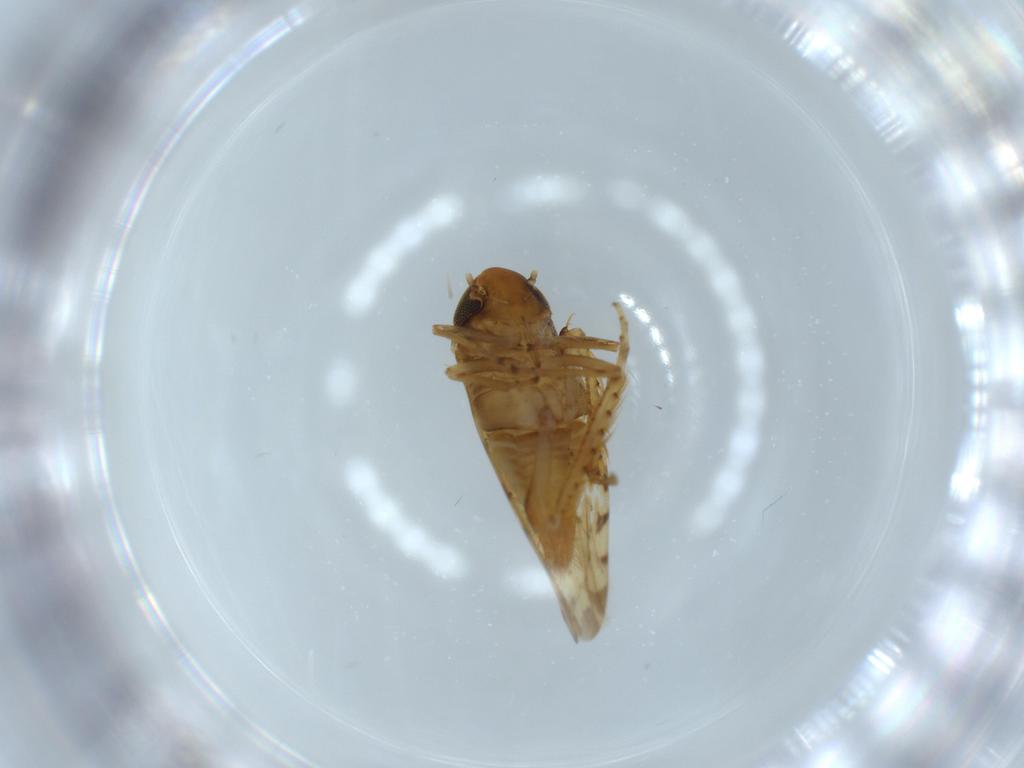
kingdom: Animalia
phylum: Arthropoda
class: Insecta
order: Hemiptera
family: Cicadellidae
